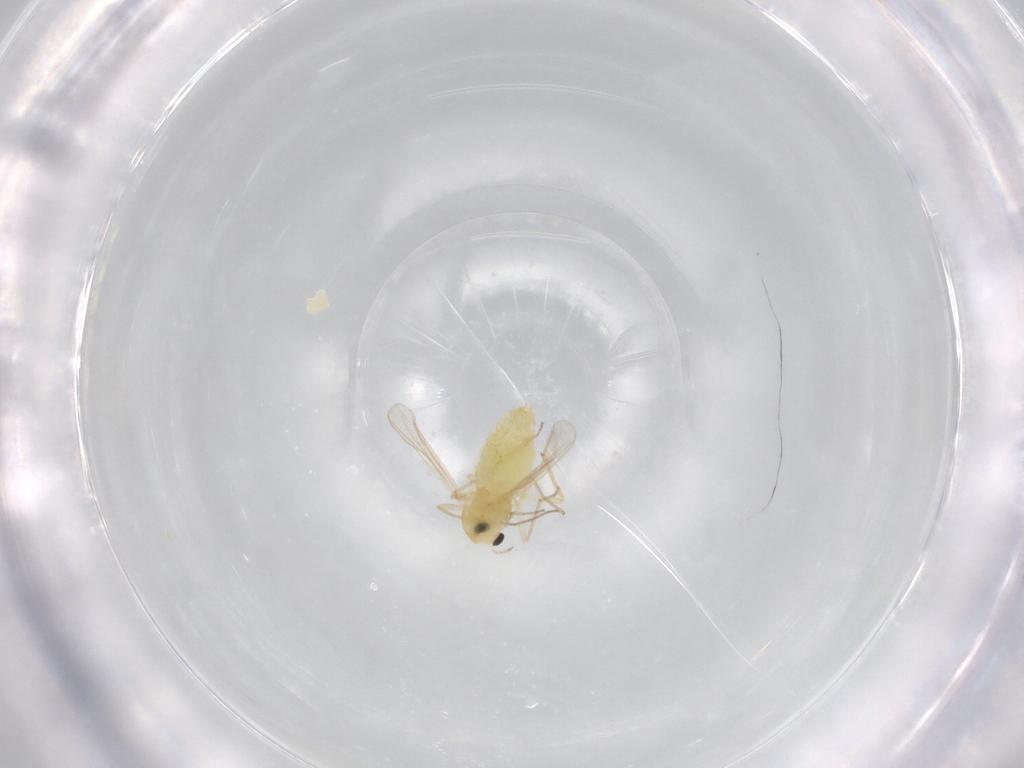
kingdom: Animalia
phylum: Arthropoda
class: Insecta
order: Diptera
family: Chironomidae
